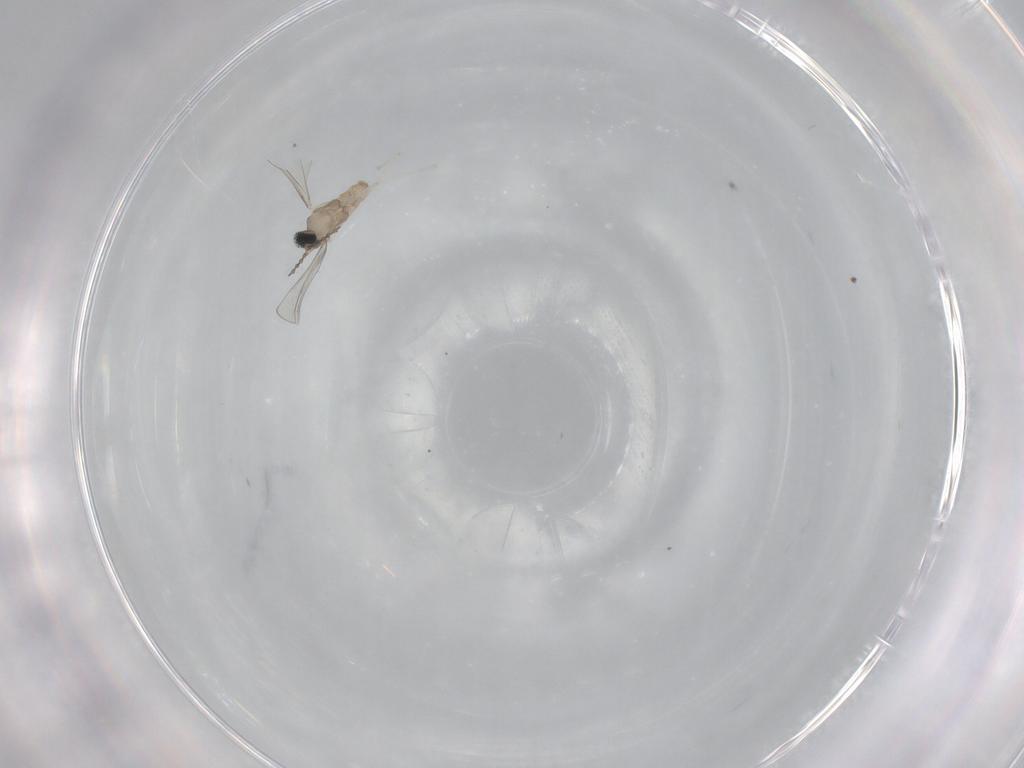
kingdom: Animalia
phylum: Arthropoda
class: Insecta
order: Diptera
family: Cecidomyiidae
